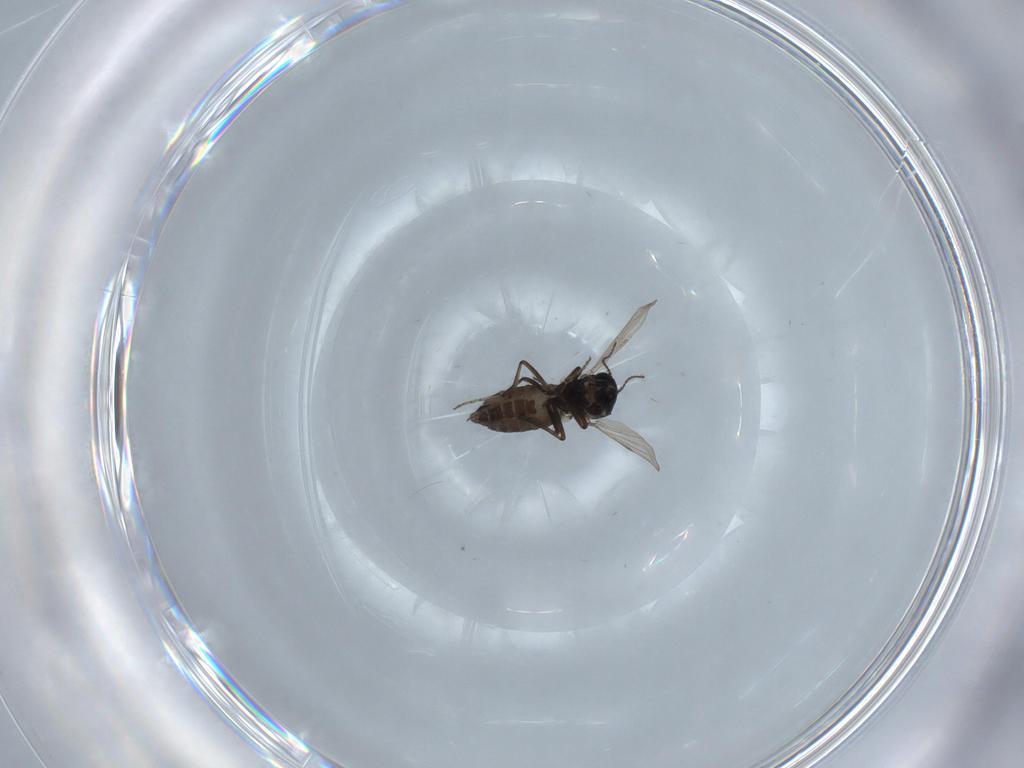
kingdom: Animalia
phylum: Arthropoda
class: Insecta
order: Diptera
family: Ceratopogonidae
